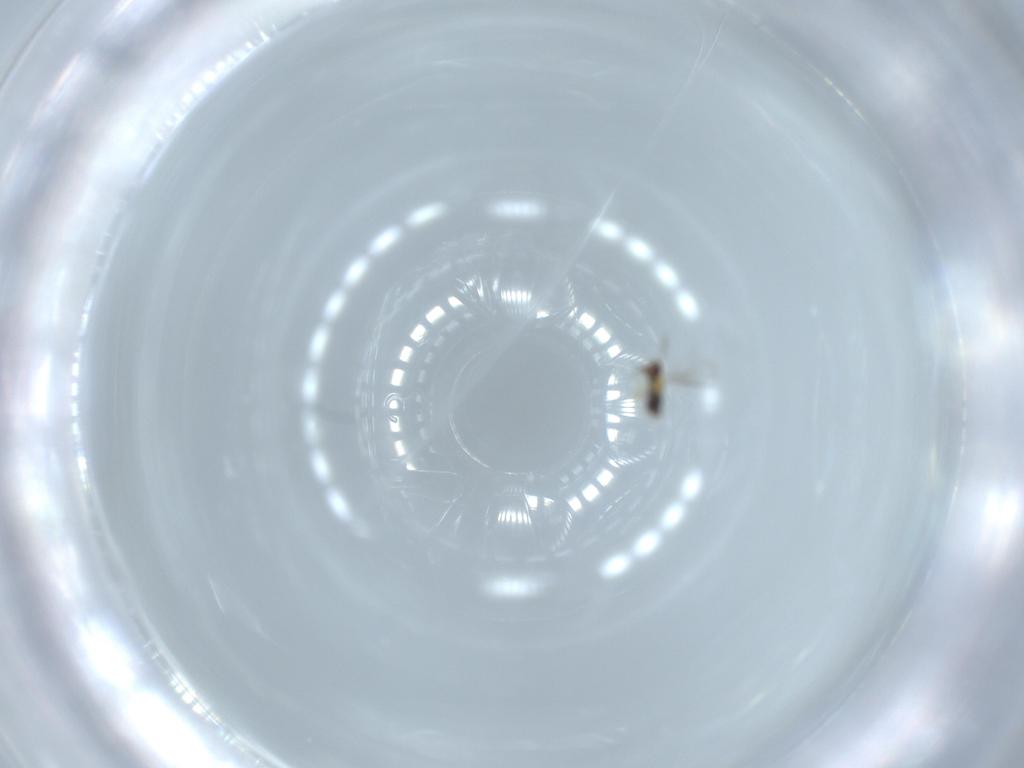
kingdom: Animalia
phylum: Arthropoda
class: Insecta
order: Hymenoptera
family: Aphelinidae
